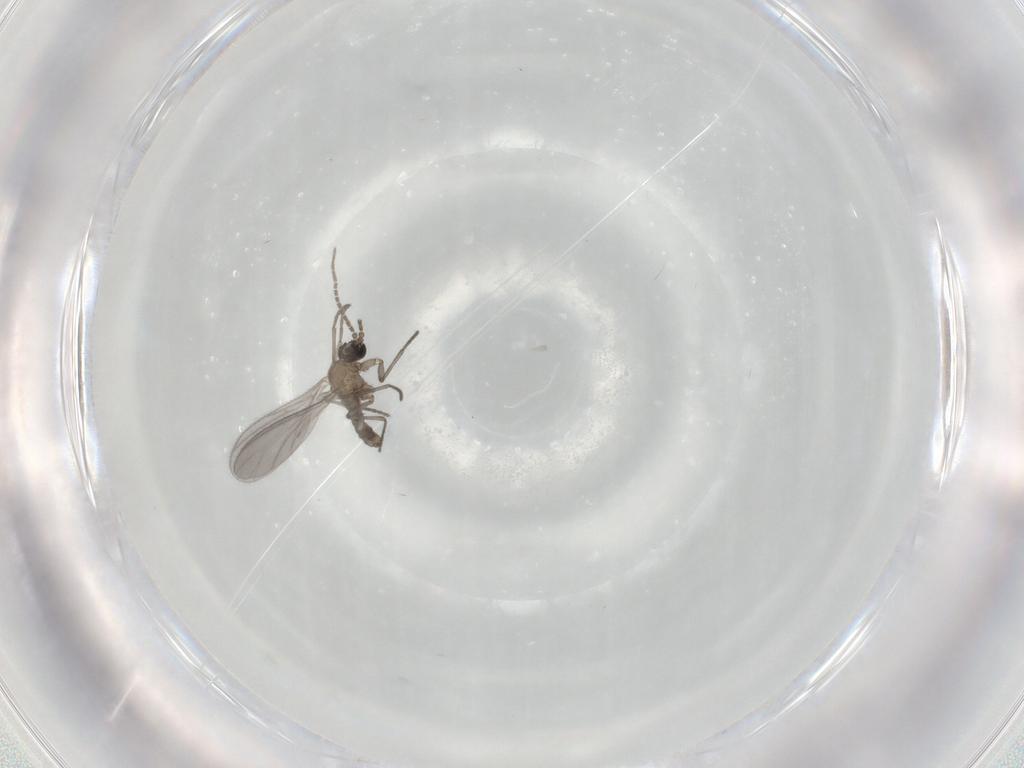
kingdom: Animalia
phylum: Arthropoda
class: Insecta
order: Diptera
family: Sciaridae
